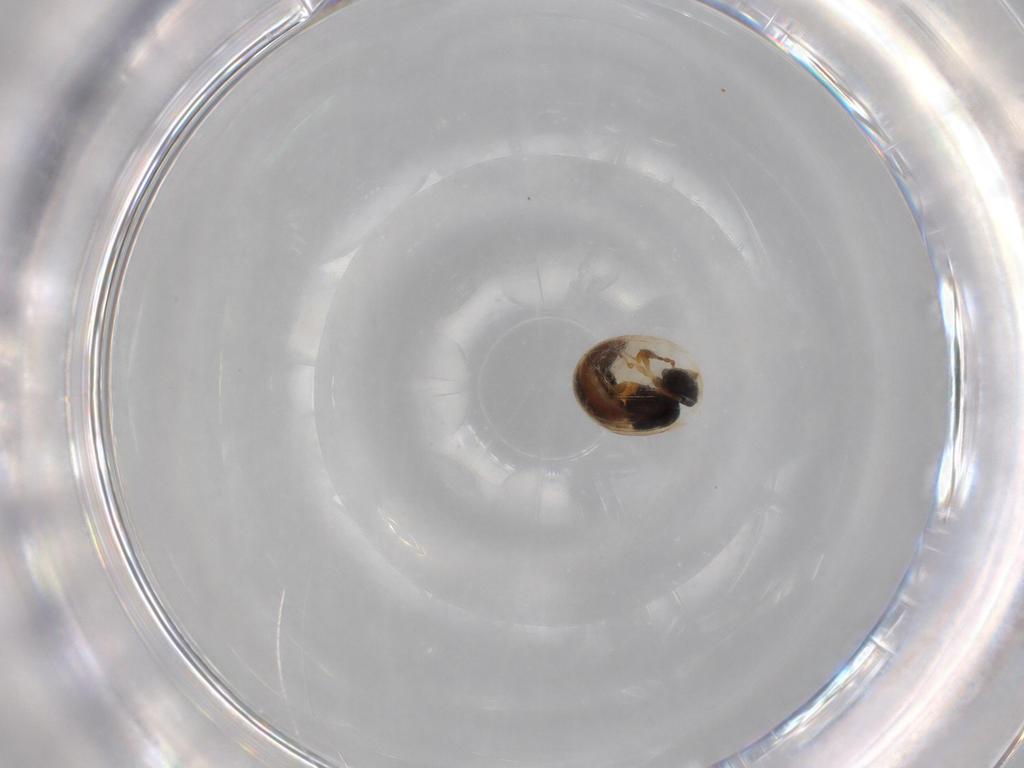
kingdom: Animalia
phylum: Arthropoda
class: Insecta
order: Hymenoptera
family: Scelionidae
